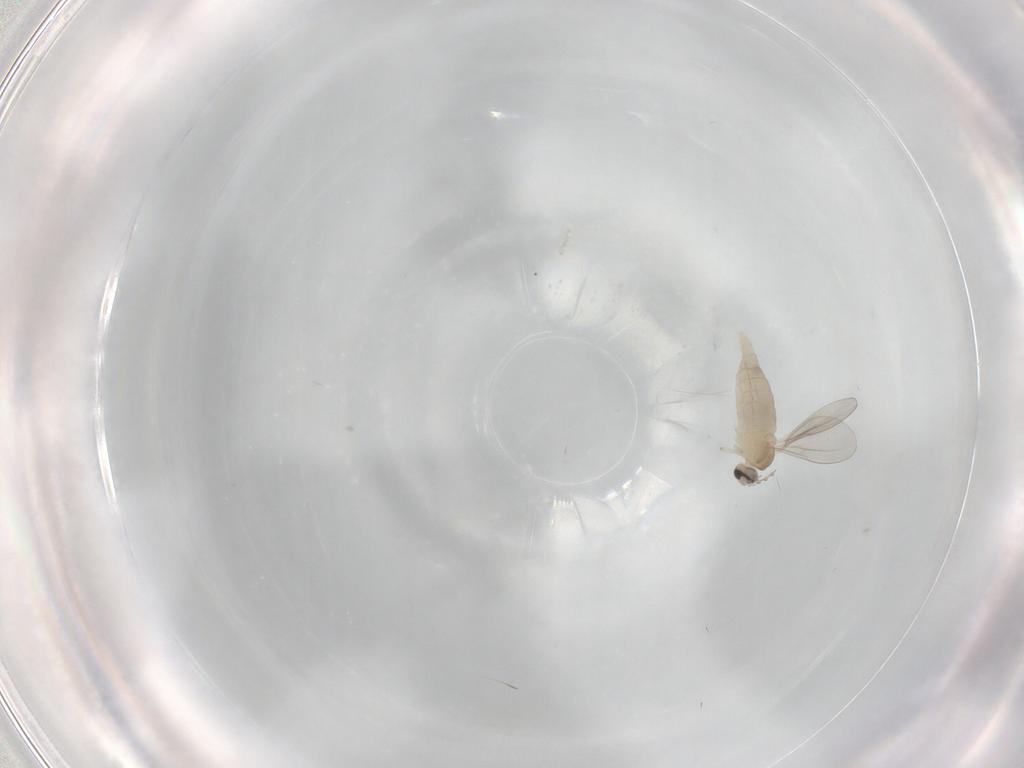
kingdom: Animalia
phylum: Arthropoda
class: Insecta
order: Diptera
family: Cecidomyiidae
